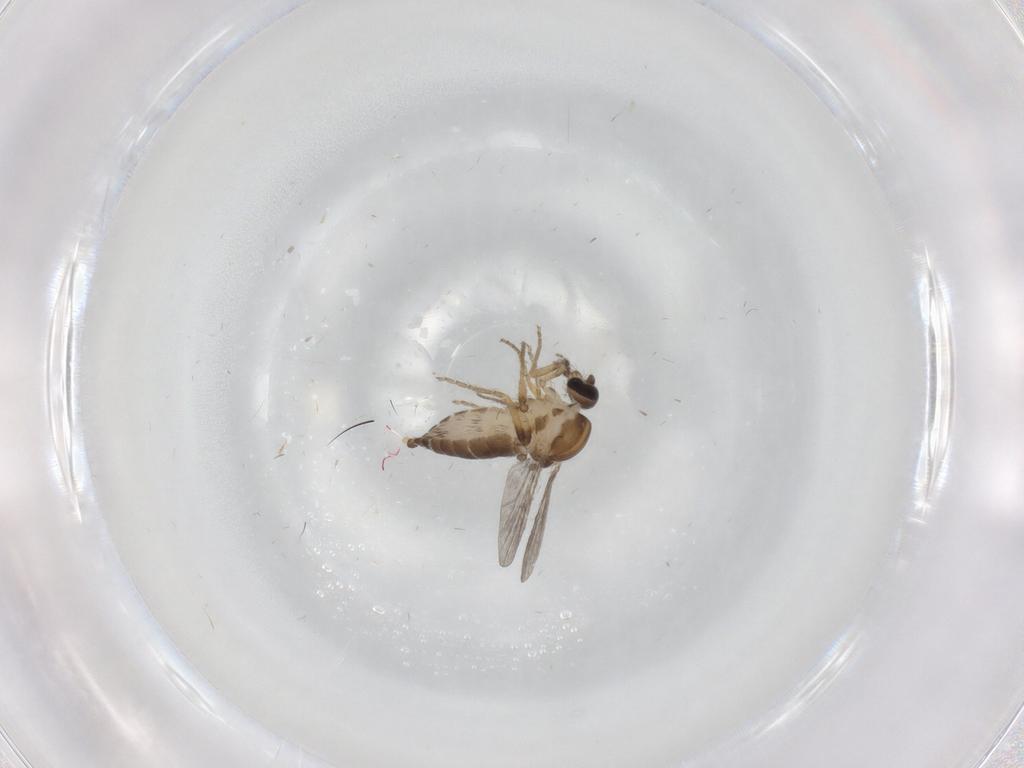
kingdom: Animalia
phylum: Arthropoda
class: Insecta
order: Diptera
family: Ceratopogonidae
